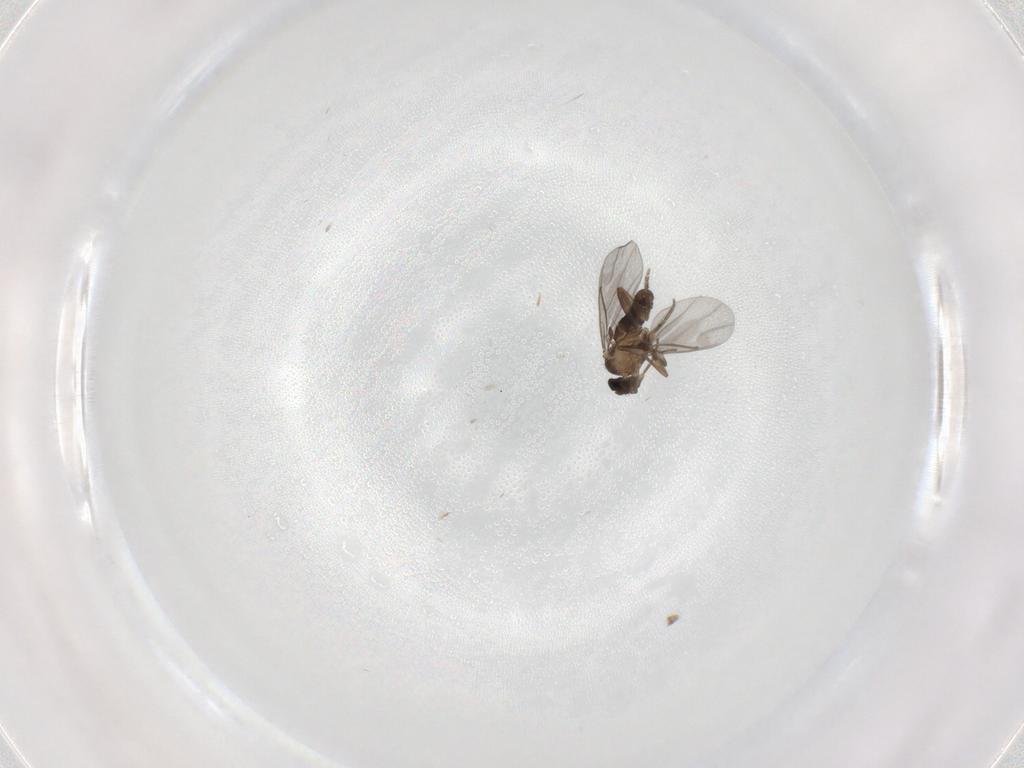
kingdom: Animalia
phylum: Arthropoda
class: Insecta
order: Diptera
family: Psychodidae
